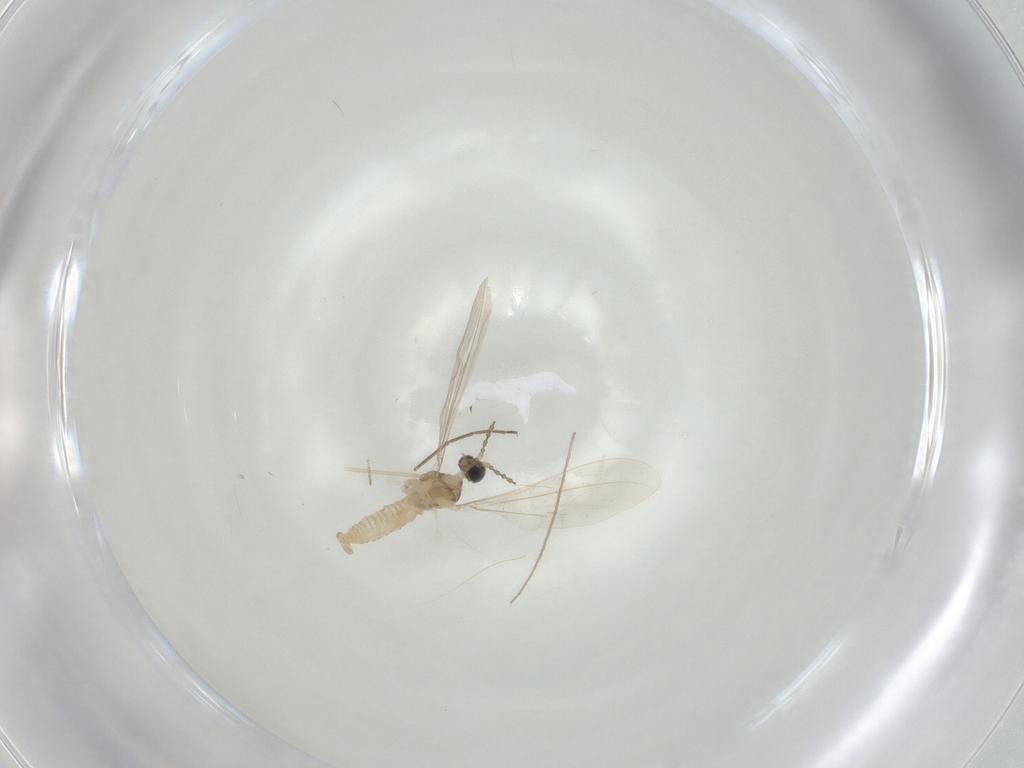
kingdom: Animalia
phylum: Arthropoda
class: Insecta
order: Diptera
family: Cecidomyiidae
